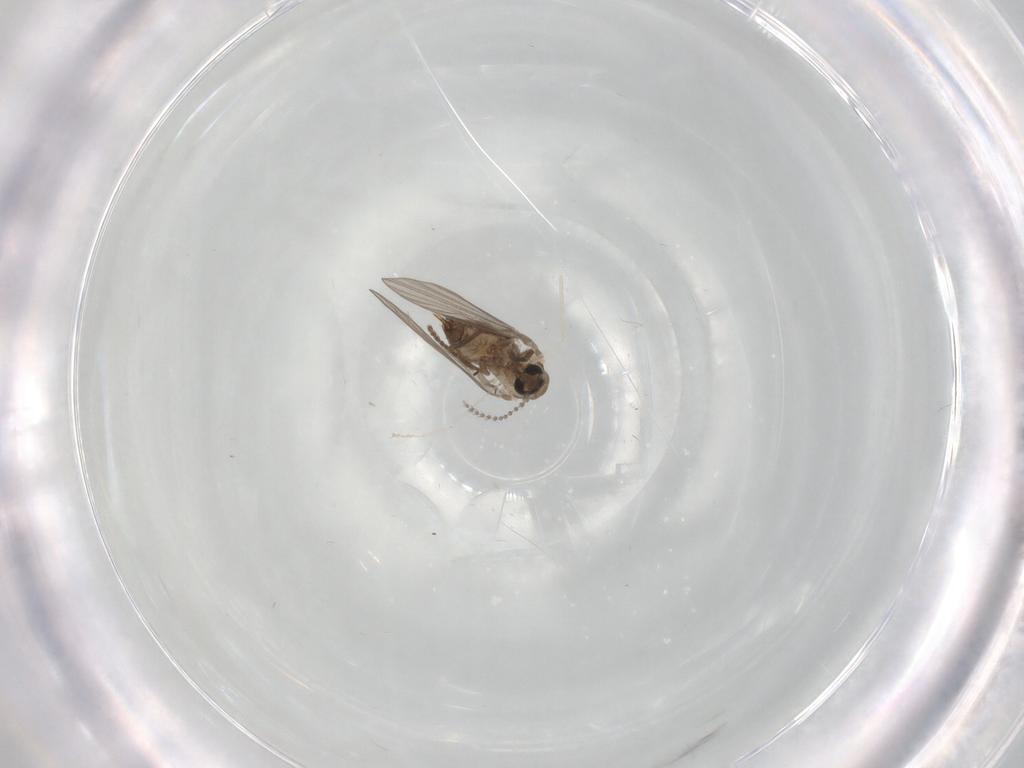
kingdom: Animalia
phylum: Arthropoda
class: Insecta
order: Diptera
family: Psychodidae
